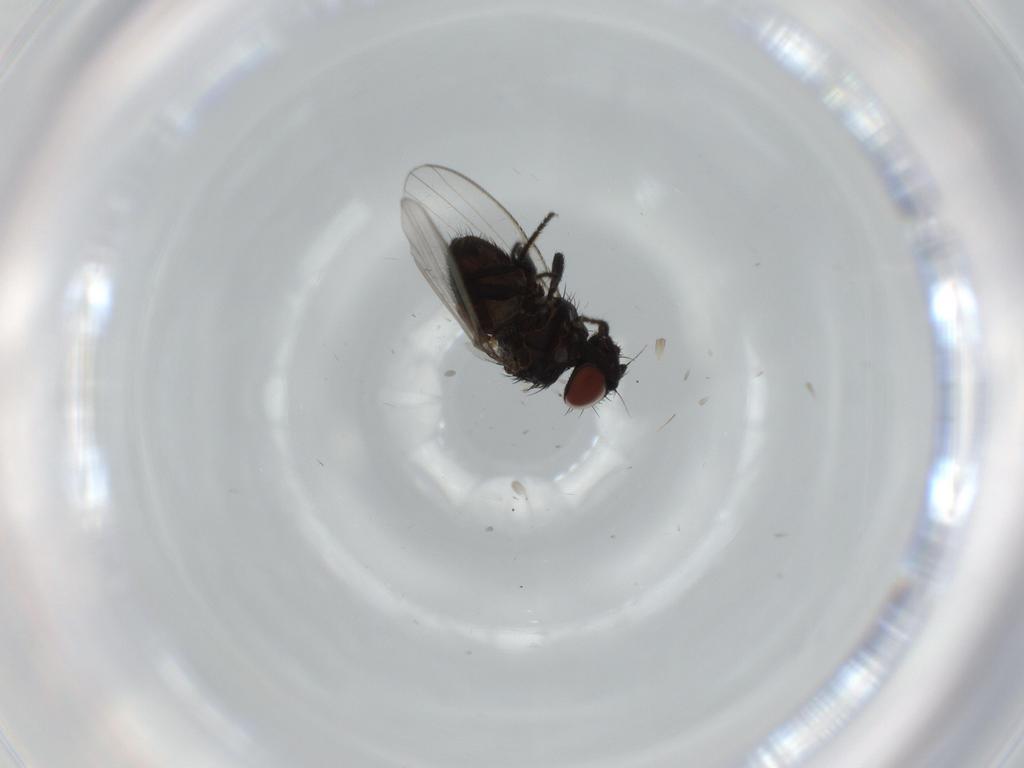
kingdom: Animalia
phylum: Arthropoda
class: Insecta
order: Diptera
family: Milichiidae
